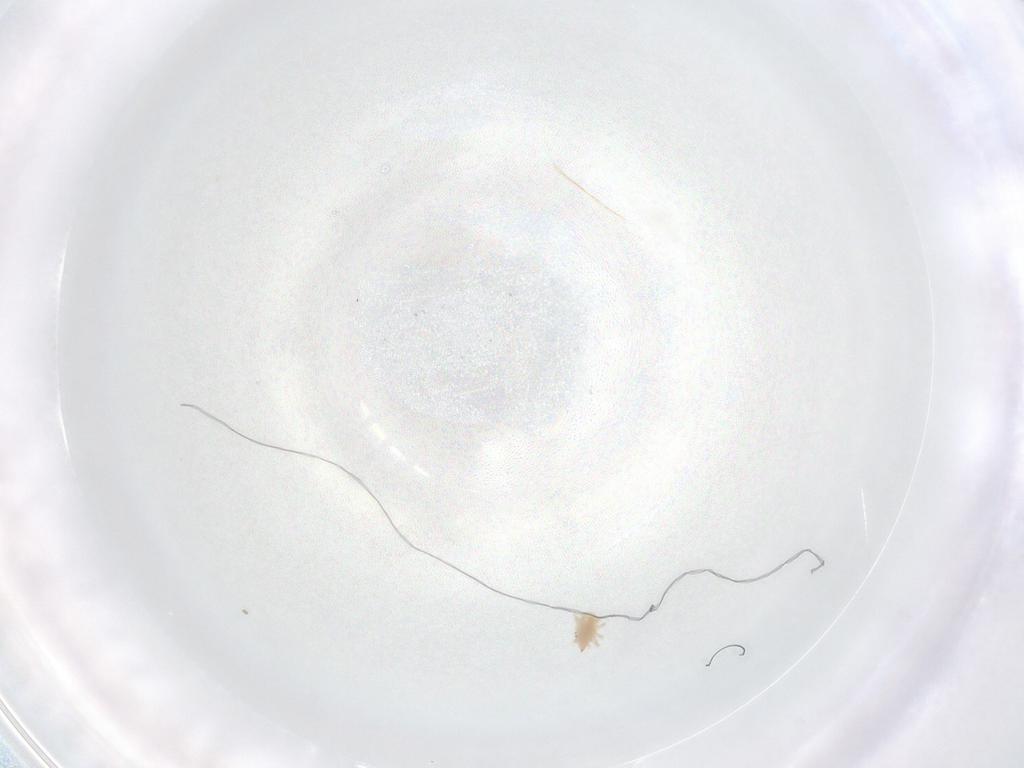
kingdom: Animalia
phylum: Arthropoda
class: Arachnida
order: Trombidiformes
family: Bdellidae
